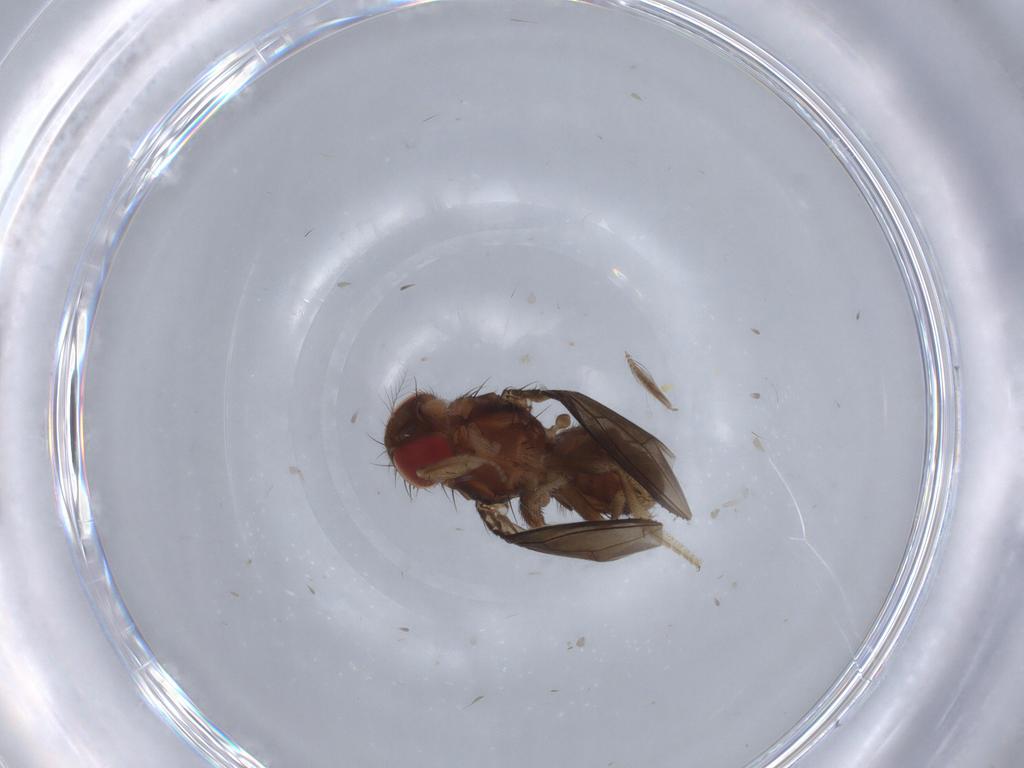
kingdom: Animalia
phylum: Arthropoda
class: Insecta
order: Diptera
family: Drosophilidae
